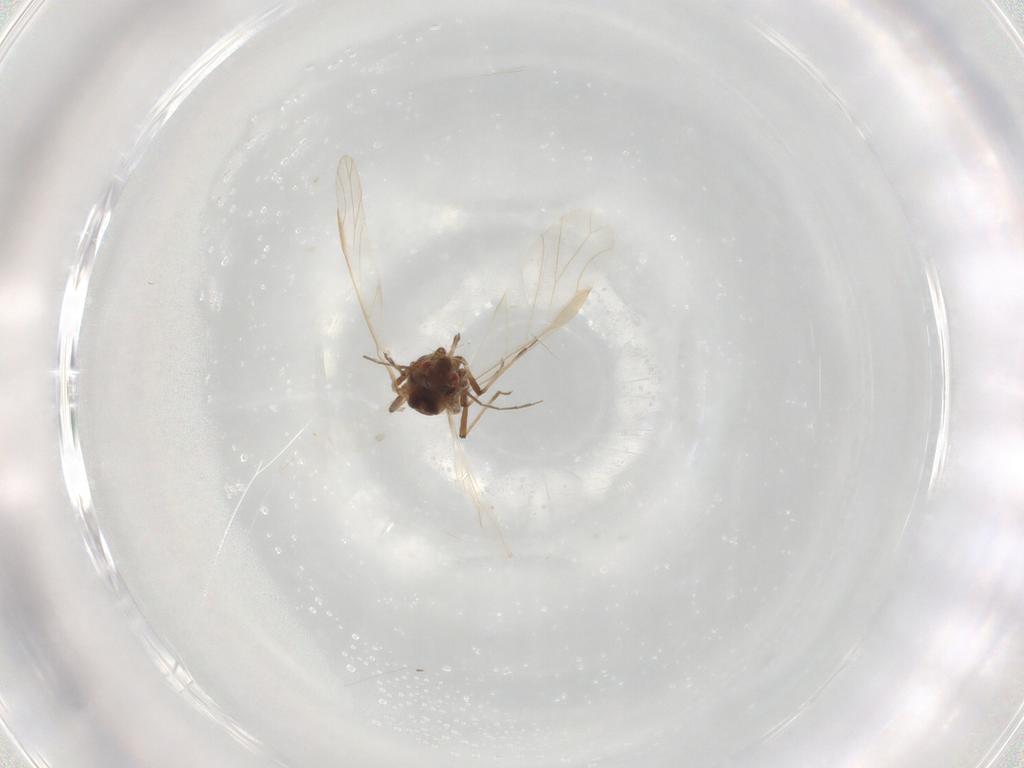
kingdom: Animalia
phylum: Arthropoda
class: Insecta
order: Hemiptera
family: Aphididae
